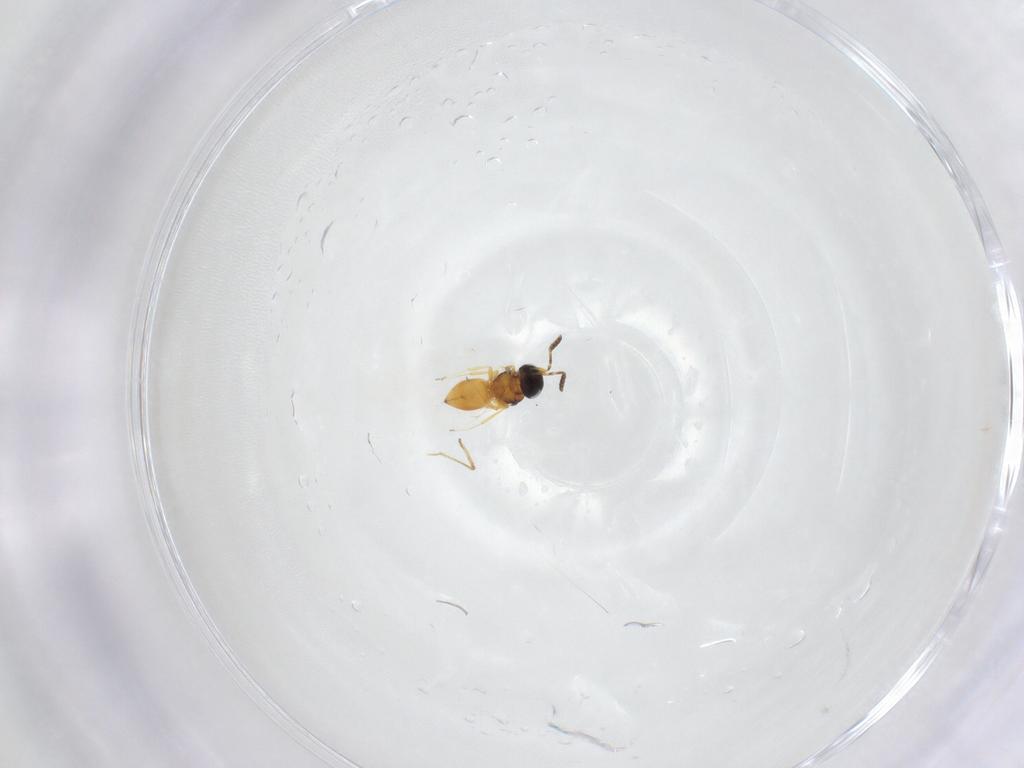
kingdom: Animalia
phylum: Arthropoda
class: Insecta
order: Hymenoptera
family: Scelionidae
